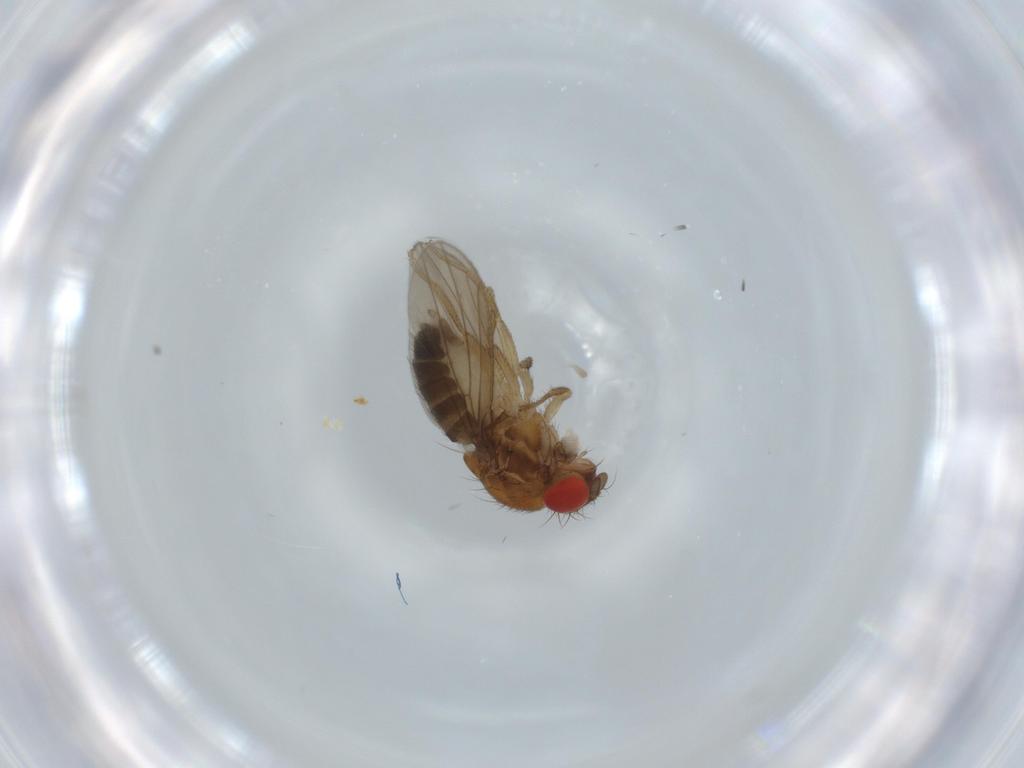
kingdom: Animalia
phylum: Arthropoda
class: Insecta
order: Diptera
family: Drosophilidae
